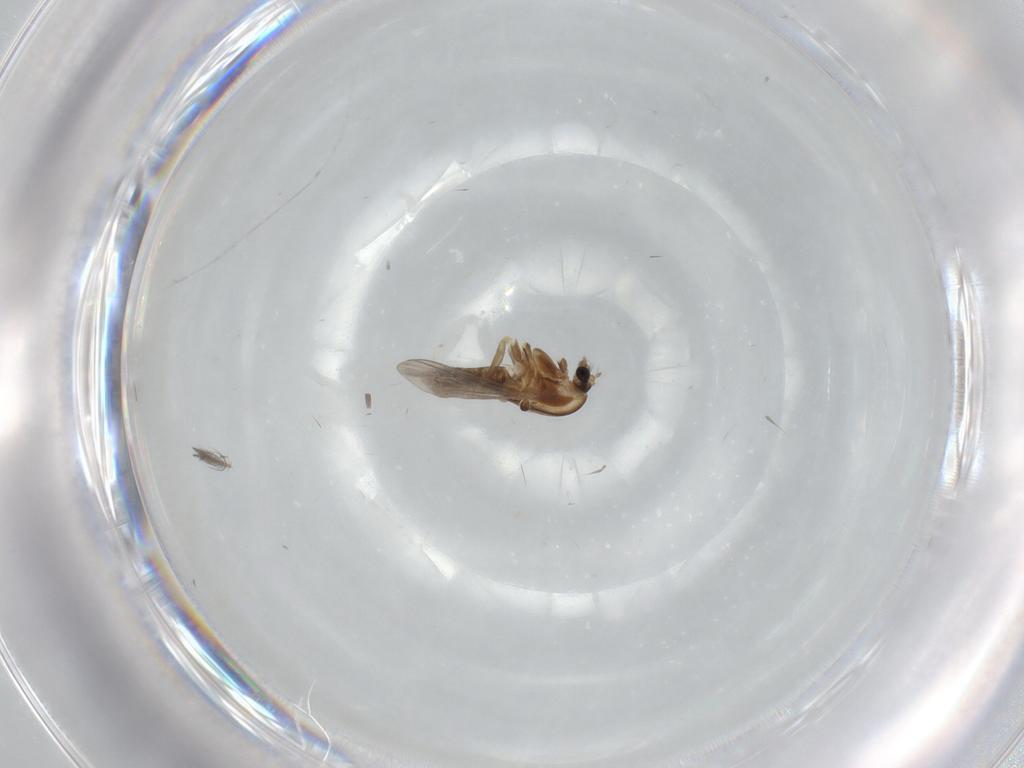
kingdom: Animalia
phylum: Arthropoda
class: Insecta
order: Diptera
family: Chironomidae
